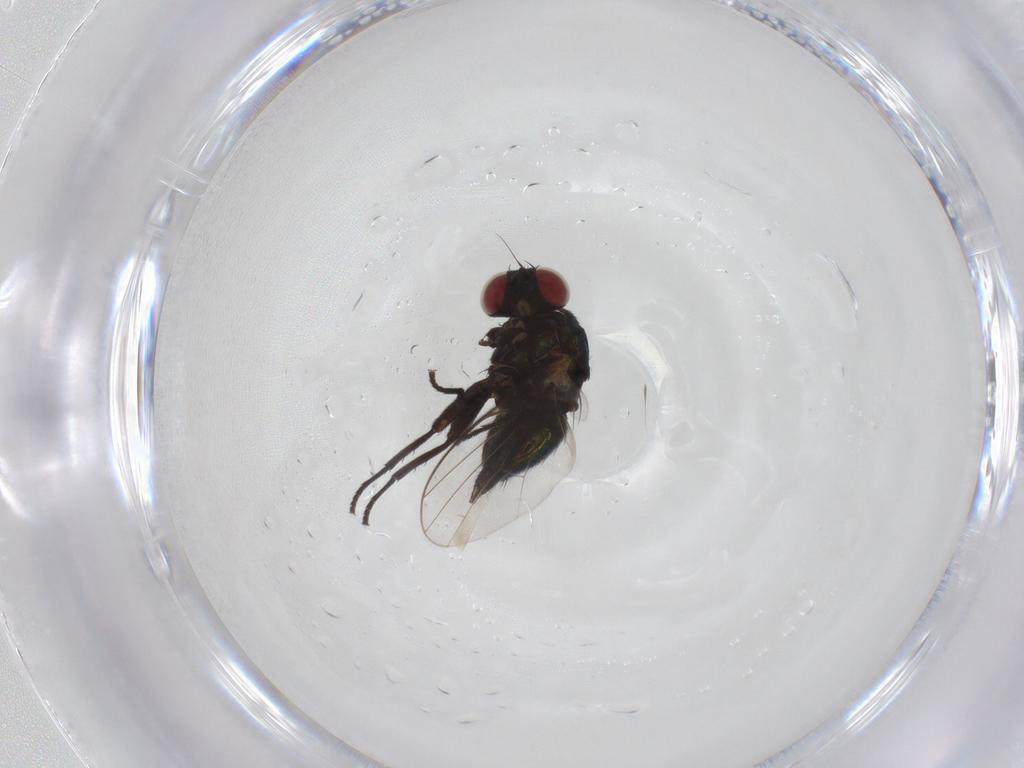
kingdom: Animalia
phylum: Arthropoda
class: Insecta
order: Diptera
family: Agromyzidae
